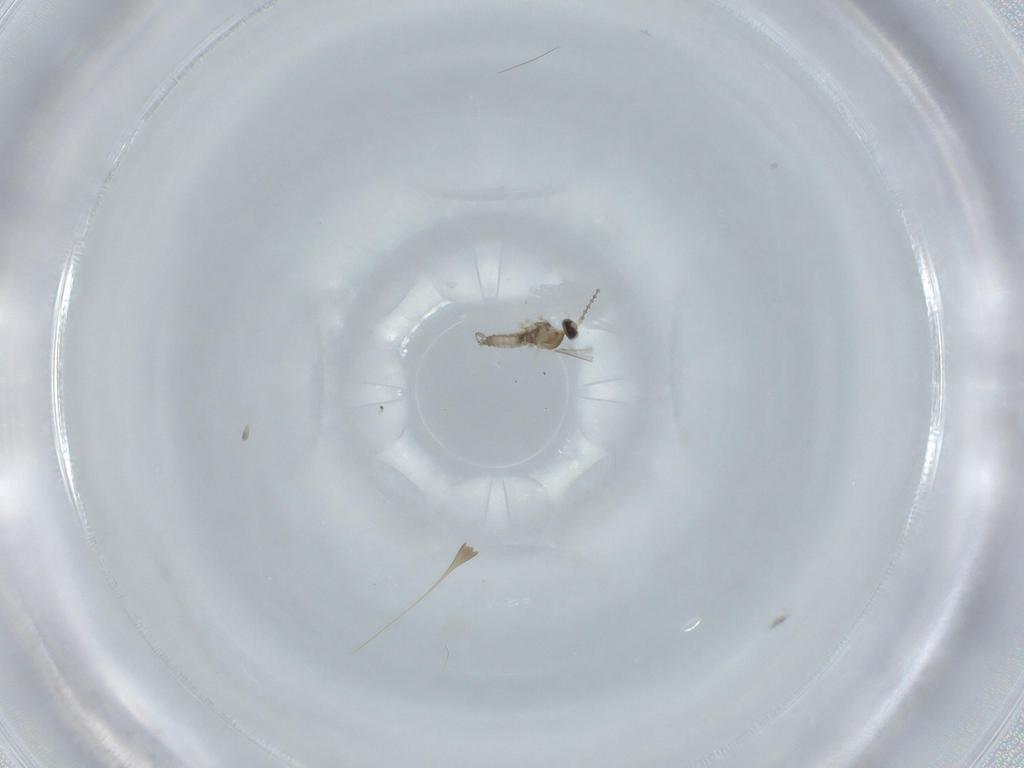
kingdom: Animalia
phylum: Arthropoda
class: Insecta
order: Diptera
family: Cecidomyiidae
